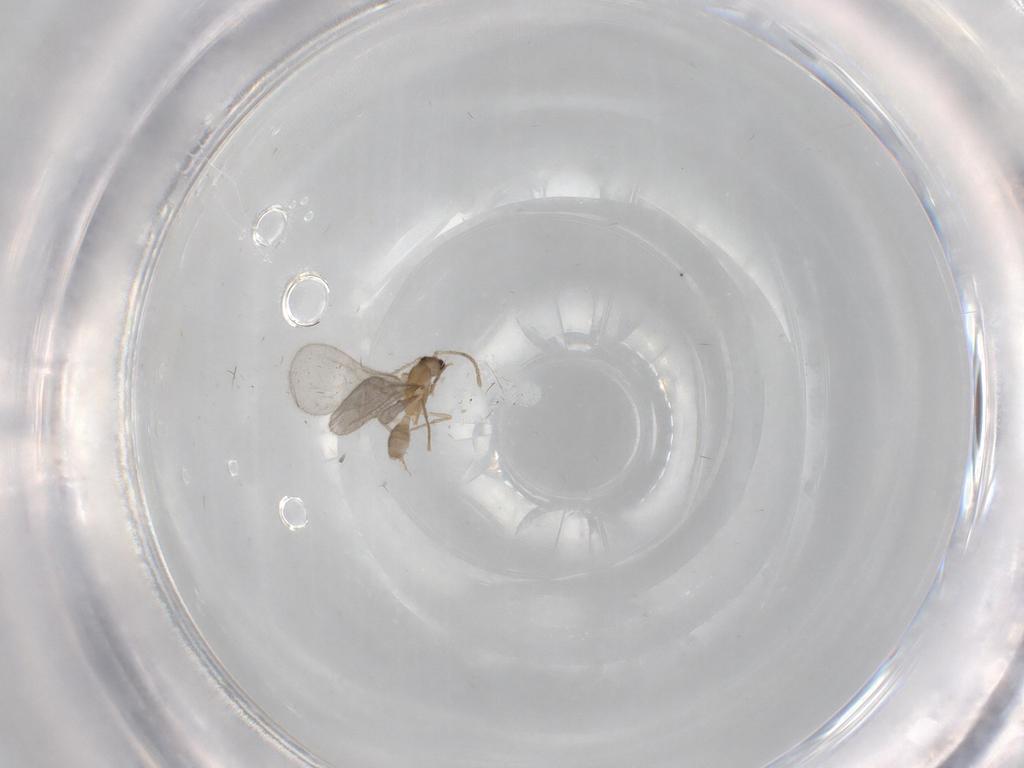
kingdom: Animalia
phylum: Arthropoda
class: Insecta
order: Hymenoptera
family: Formicidae
